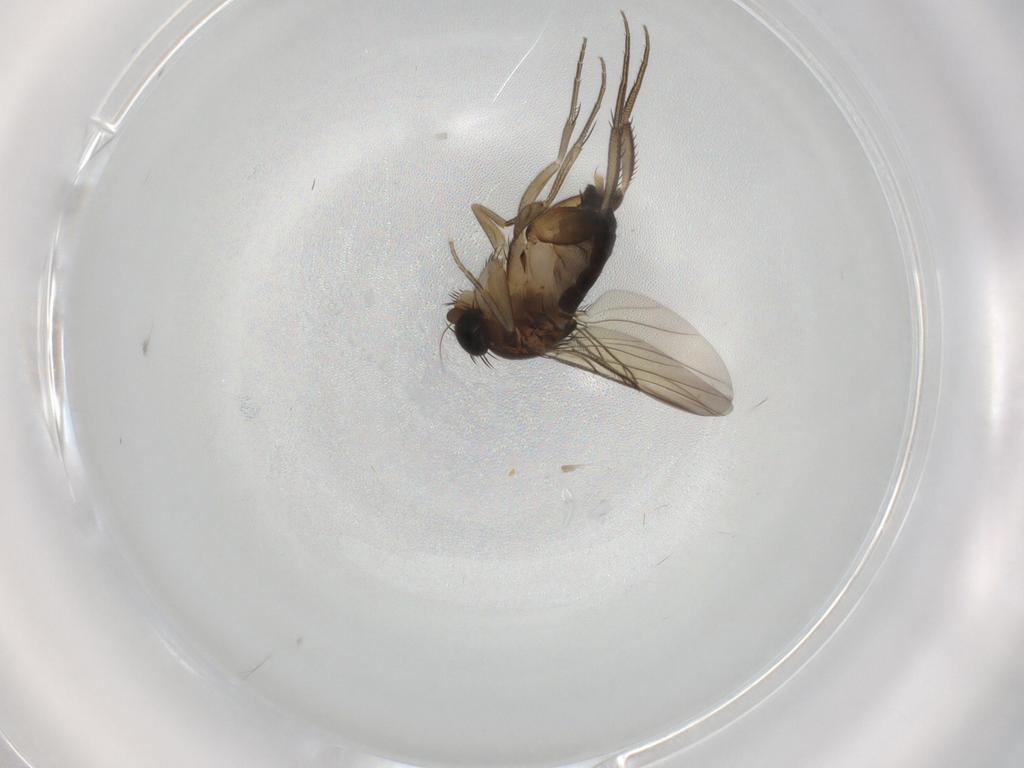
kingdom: Animalia
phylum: Arthropoda
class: Insecta
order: Diptera
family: Phoridae
